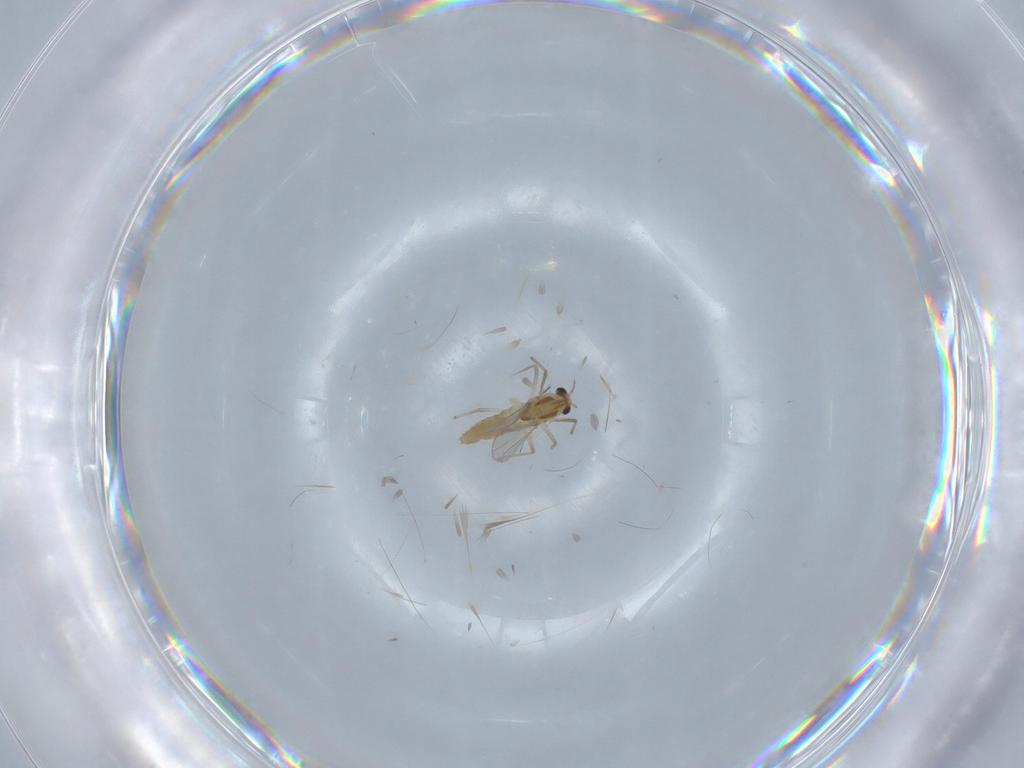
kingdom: Animalia
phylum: Arthropoda
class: Insecta
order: Diptera
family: Chironomidae
